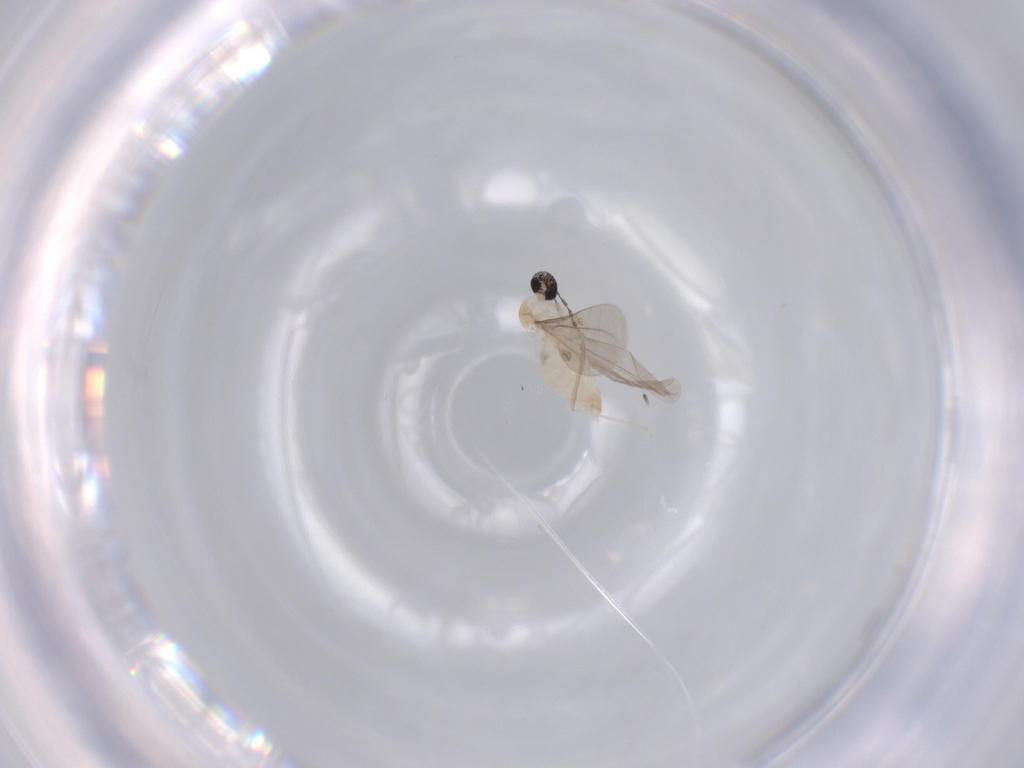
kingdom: Animalia
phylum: Arthropoda
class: Insecta
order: Diptera
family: Cecidomyiidae
